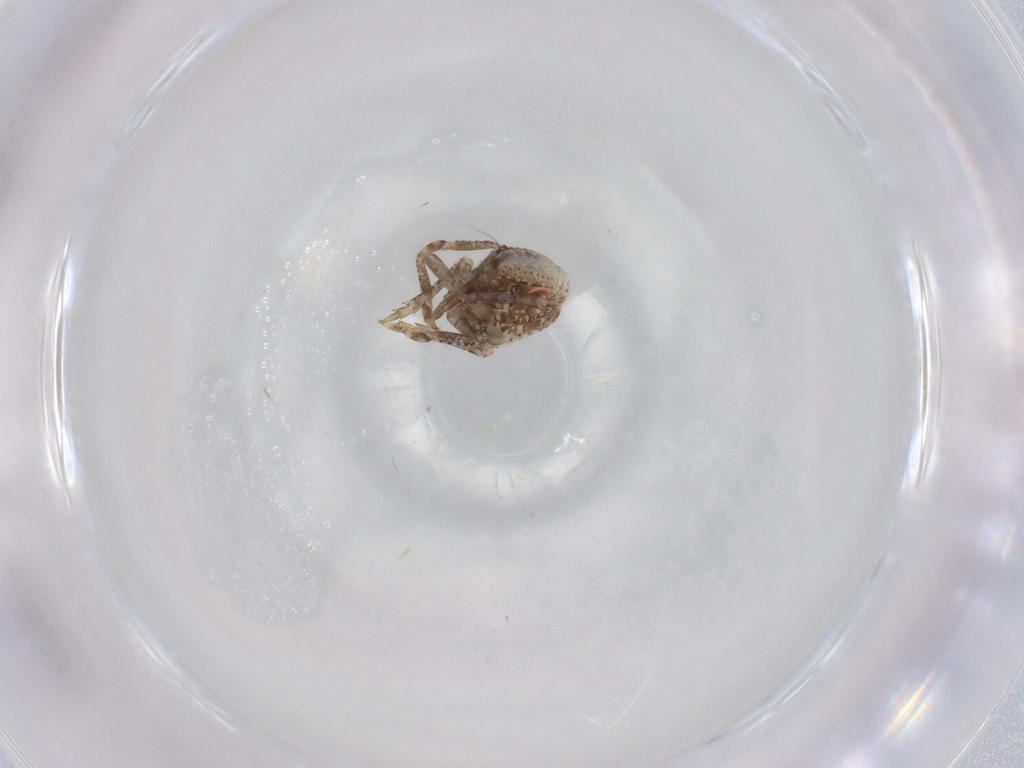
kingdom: Animalia
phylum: Arthropoda
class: Insecta
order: Hemiptera
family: Acanaloniidae
